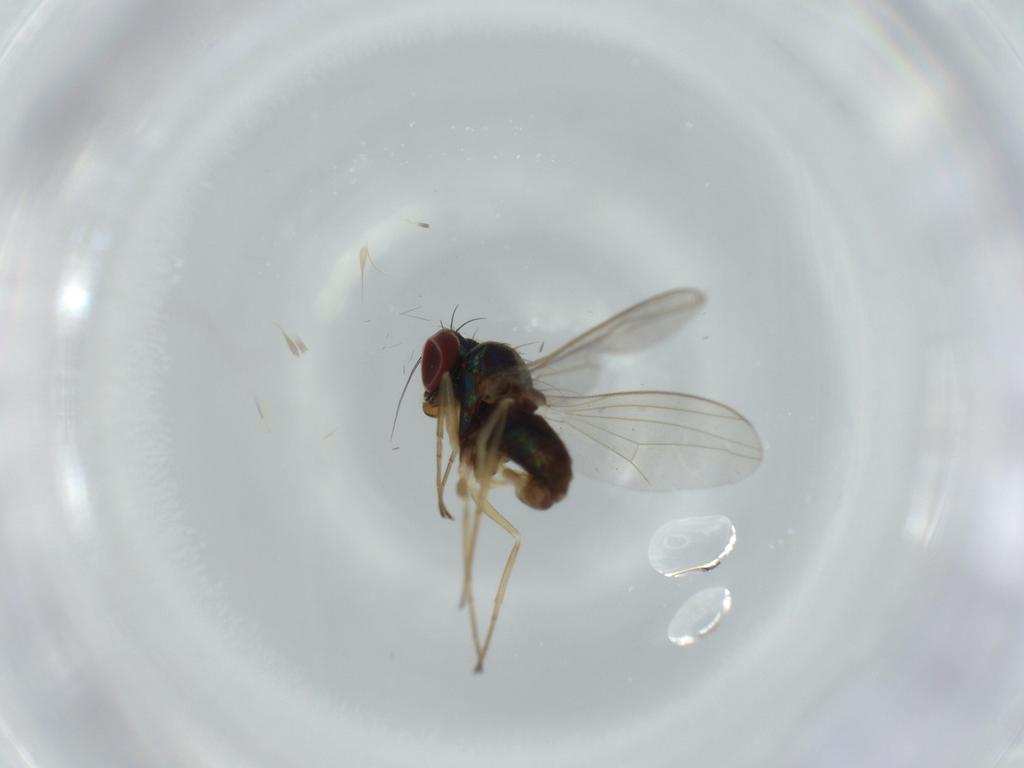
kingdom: Animalia
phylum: Arthropoda
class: Insecta
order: Diptera
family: Dolichopodidae
